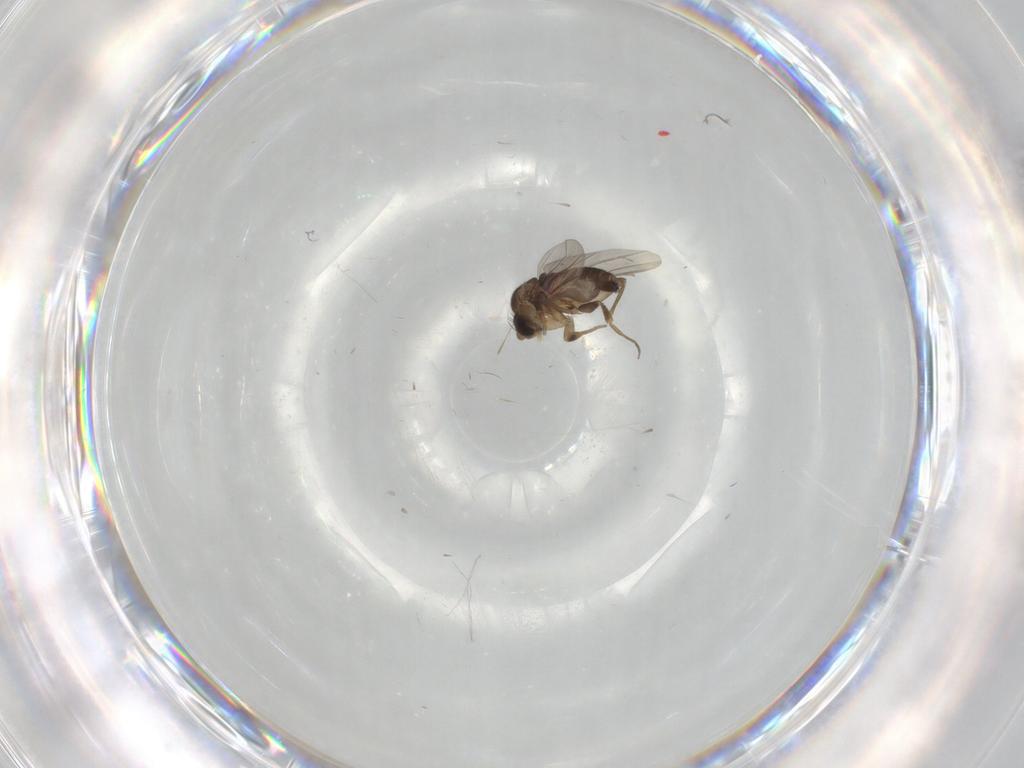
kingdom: Animalia
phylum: Arthropoda
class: Insecta
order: Diptera
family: Phoridae
